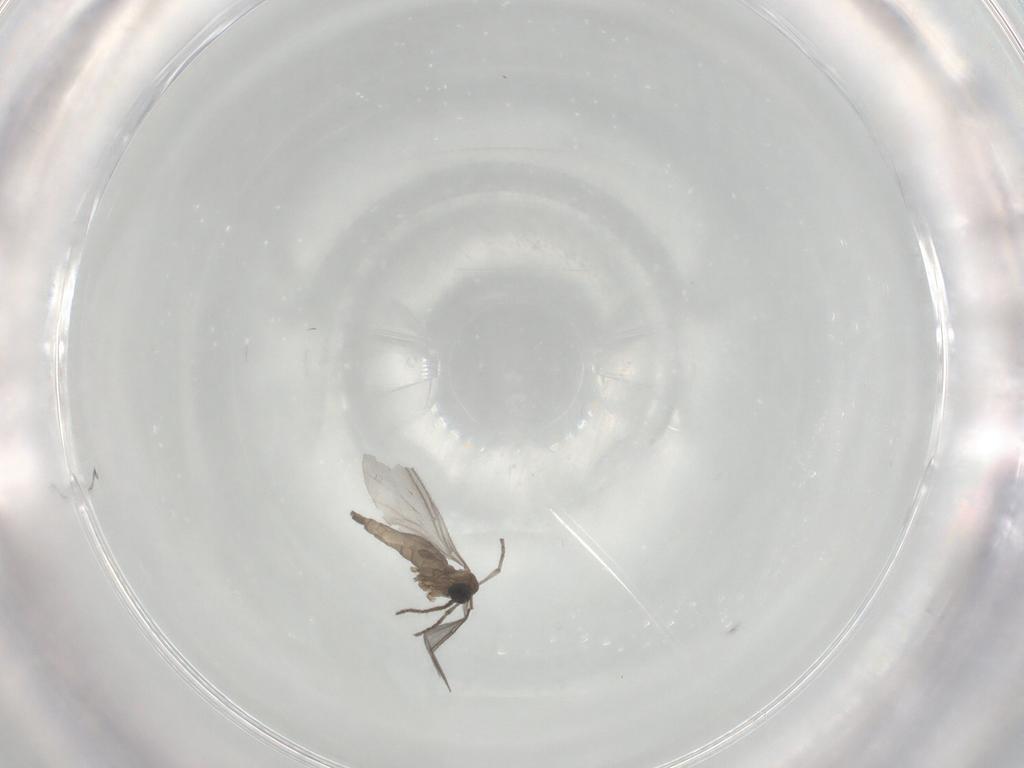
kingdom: Animalia
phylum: Arthropoda
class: Insecta
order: Diptera
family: Sciaridae
